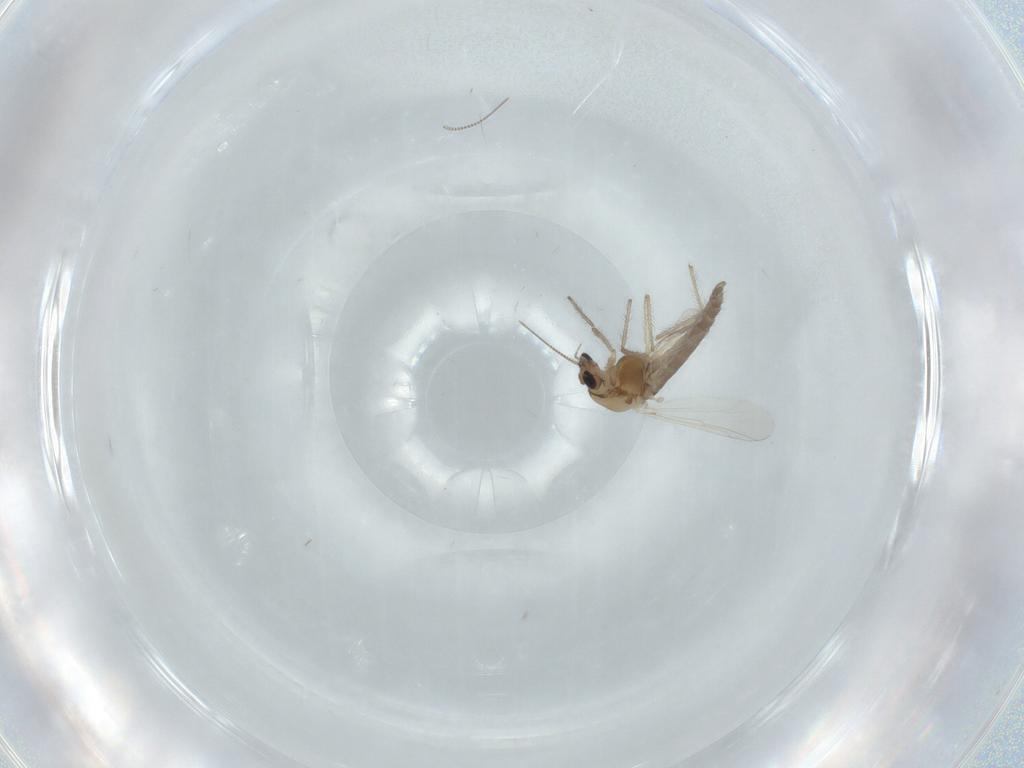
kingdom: Animalia
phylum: Arthropoda
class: Insecta
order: Diptera
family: Chironomidae
